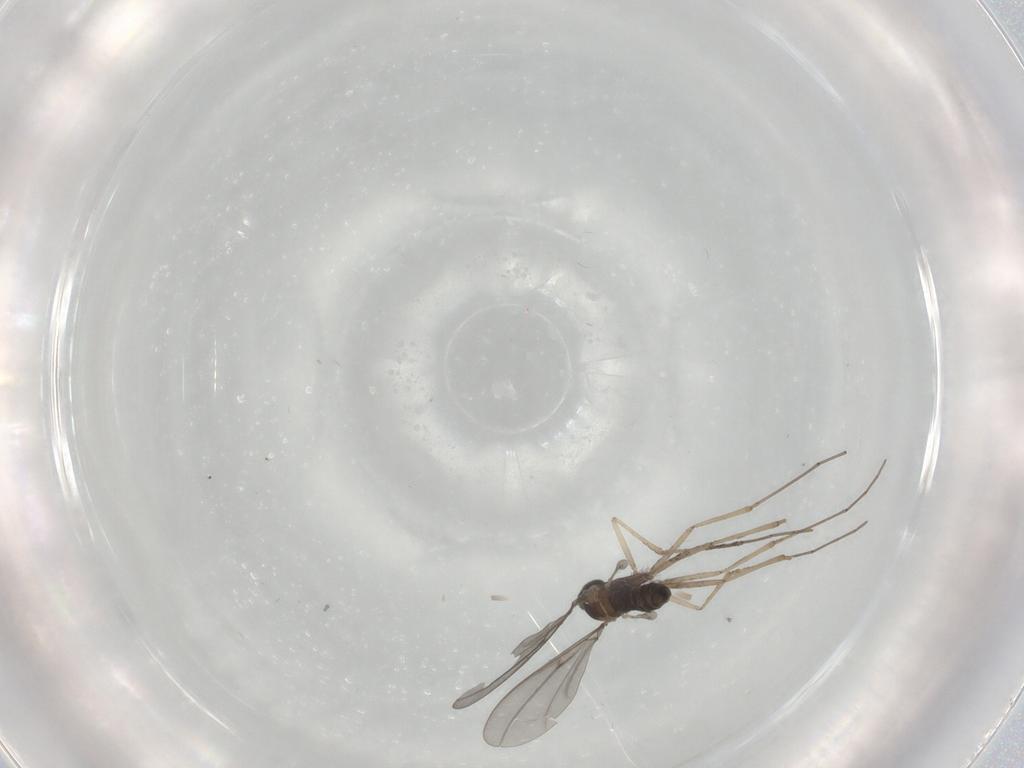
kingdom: Animalia
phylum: Arthropoda
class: Insecta
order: Diptera
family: Cecidomyiidae
